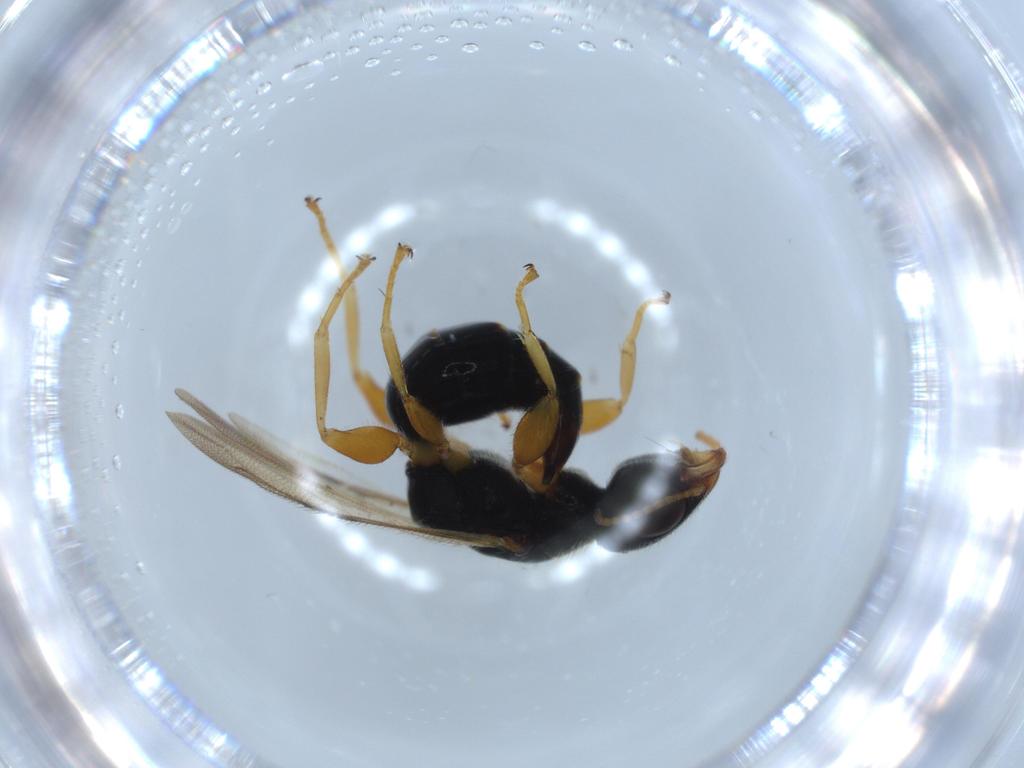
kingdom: Animalia
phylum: Arthropoda
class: Insecta
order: Hymenoptera
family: Bethylidae
